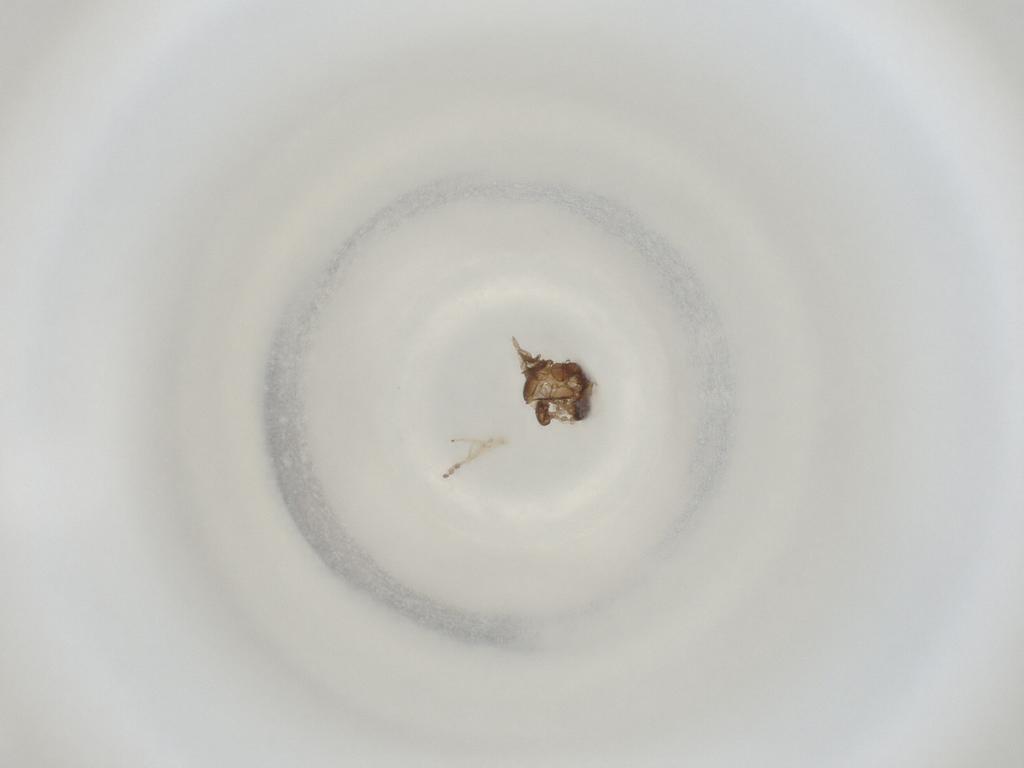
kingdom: Animalia
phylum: Arthropoda
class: Insecta
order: Diptera
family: Cecidomyiidae
